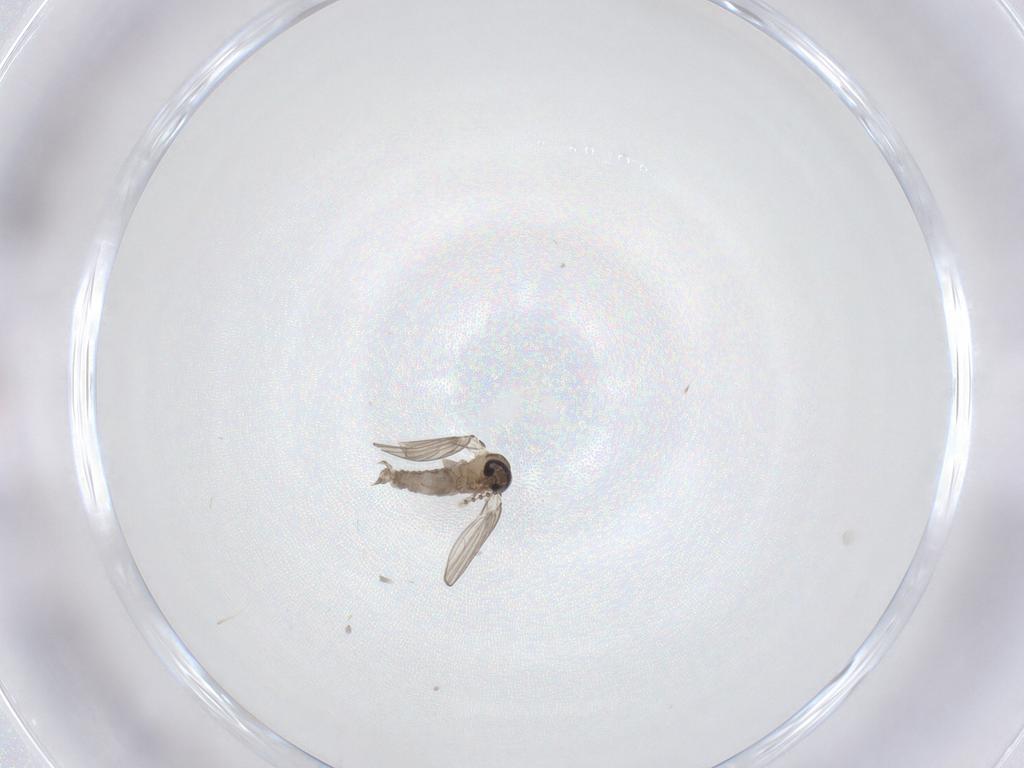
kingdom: Animalia
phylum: Arthropoda
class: Insecta
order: Diptera
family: Psychodidae
